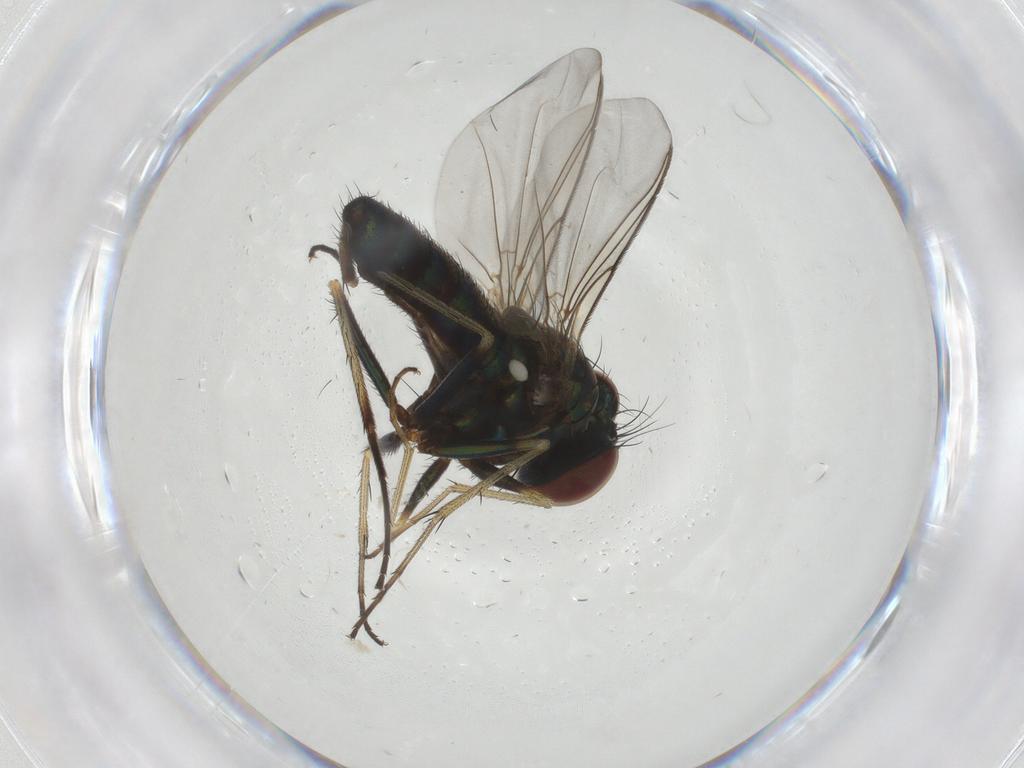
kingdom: Animalia
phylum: Arthropoda
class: Insecta
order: Diptera
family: Dolichopodidae
